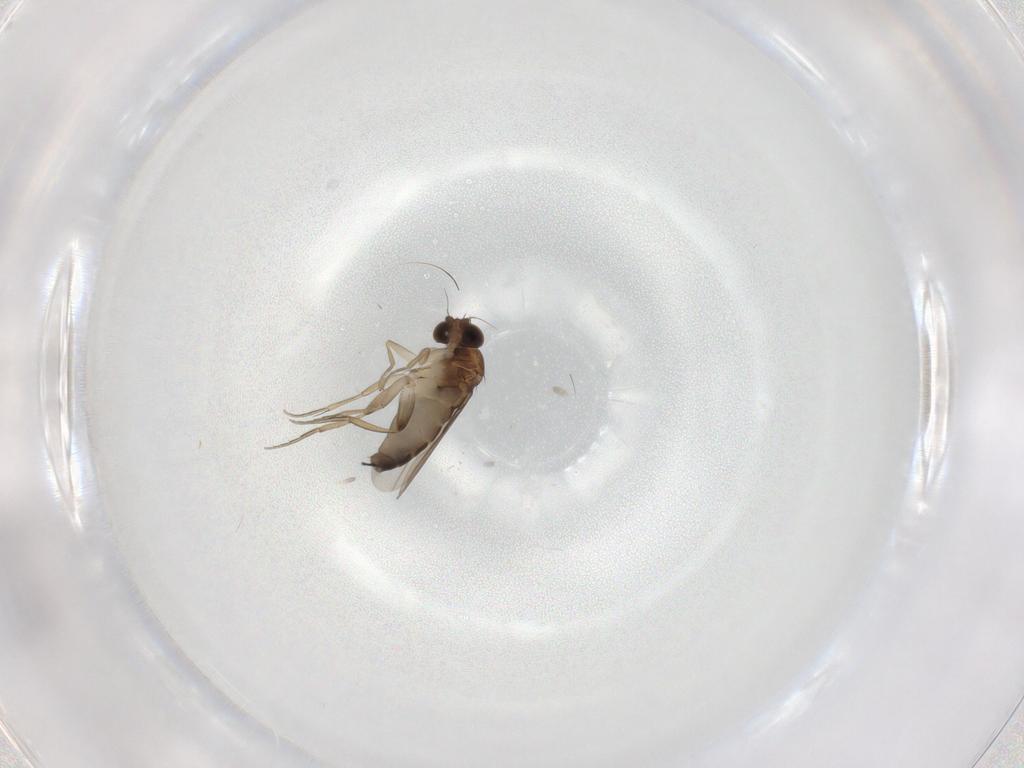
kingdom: Animalia
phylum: Arthropoda
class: Insecta
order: Diptera
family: Phoridae
